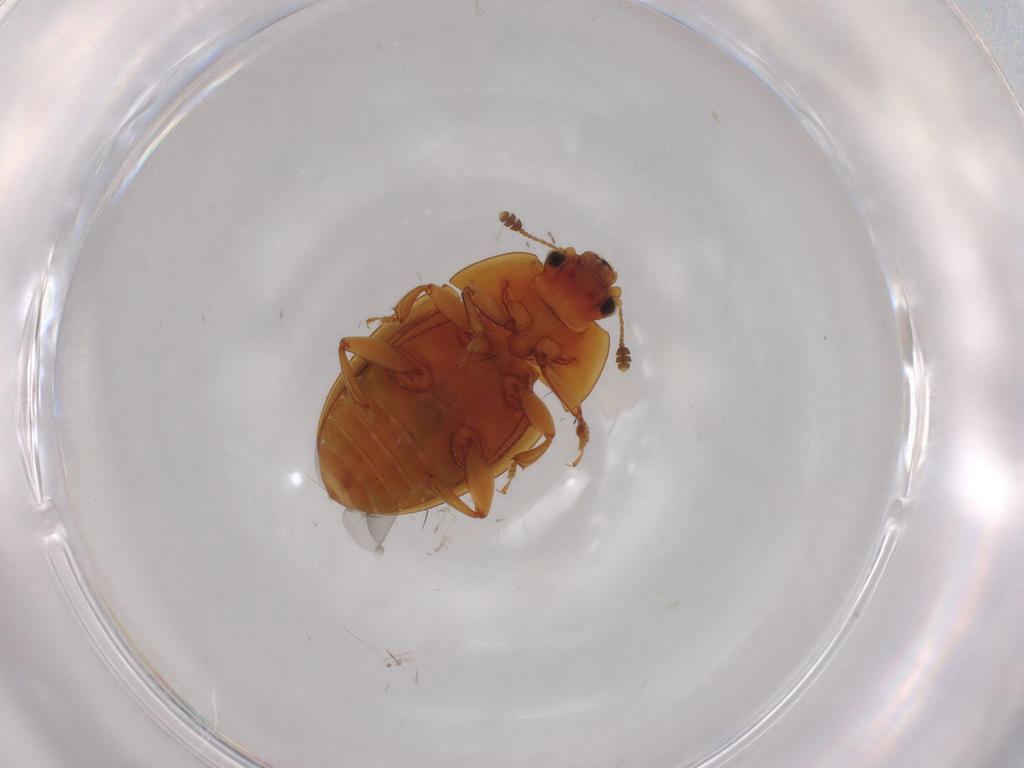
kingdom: Animalia
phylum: Arthropoda
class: Insecta
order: Coleoptera
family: Nitidulidae
